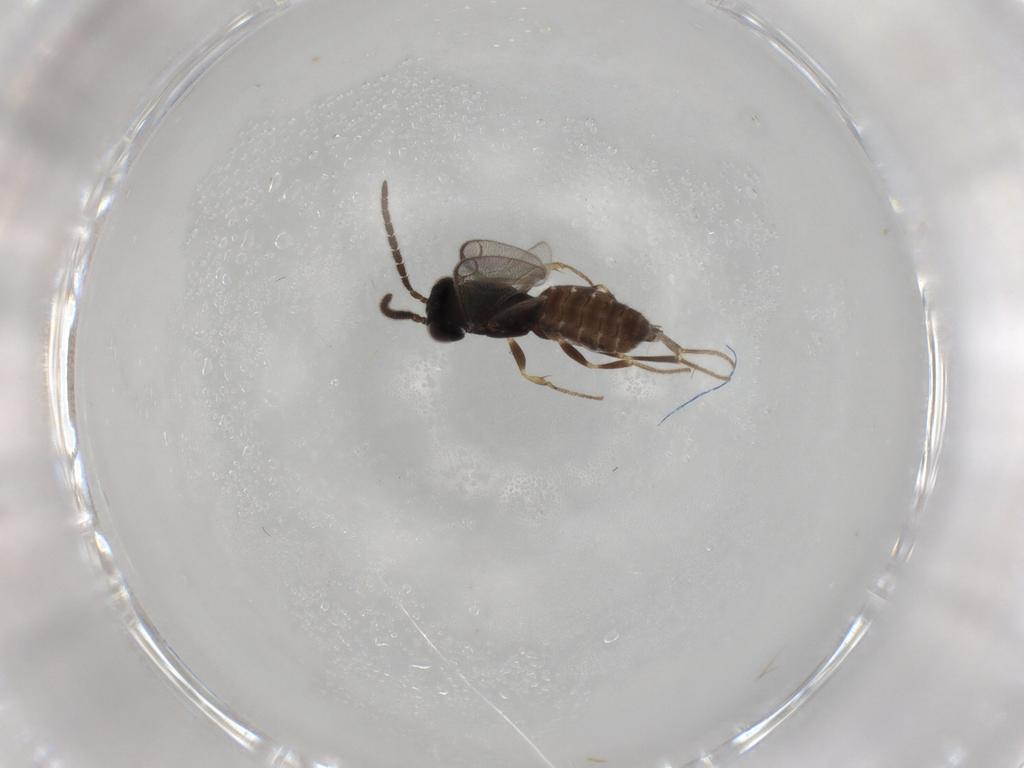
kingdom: Animalia
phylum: Arthropoda
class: Insecta
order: Hymenoptera
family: Dryinidae
